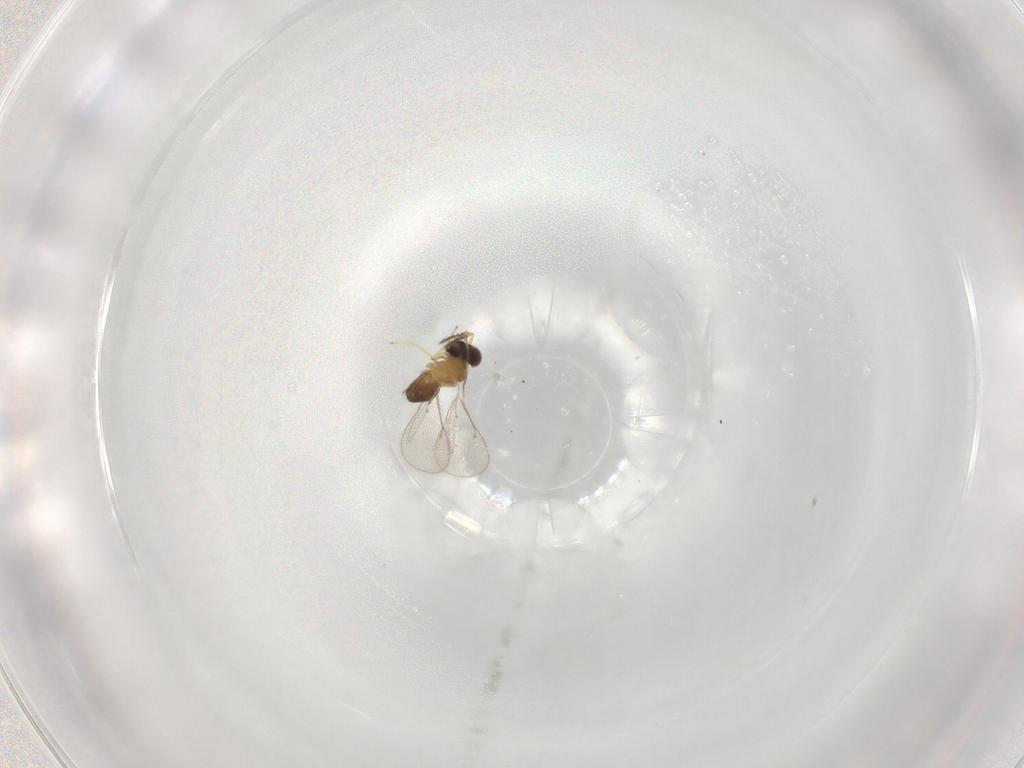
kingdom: Animalia
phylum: Arthropoda
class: Insecta
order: Hymenoptera
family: Eulophidae
